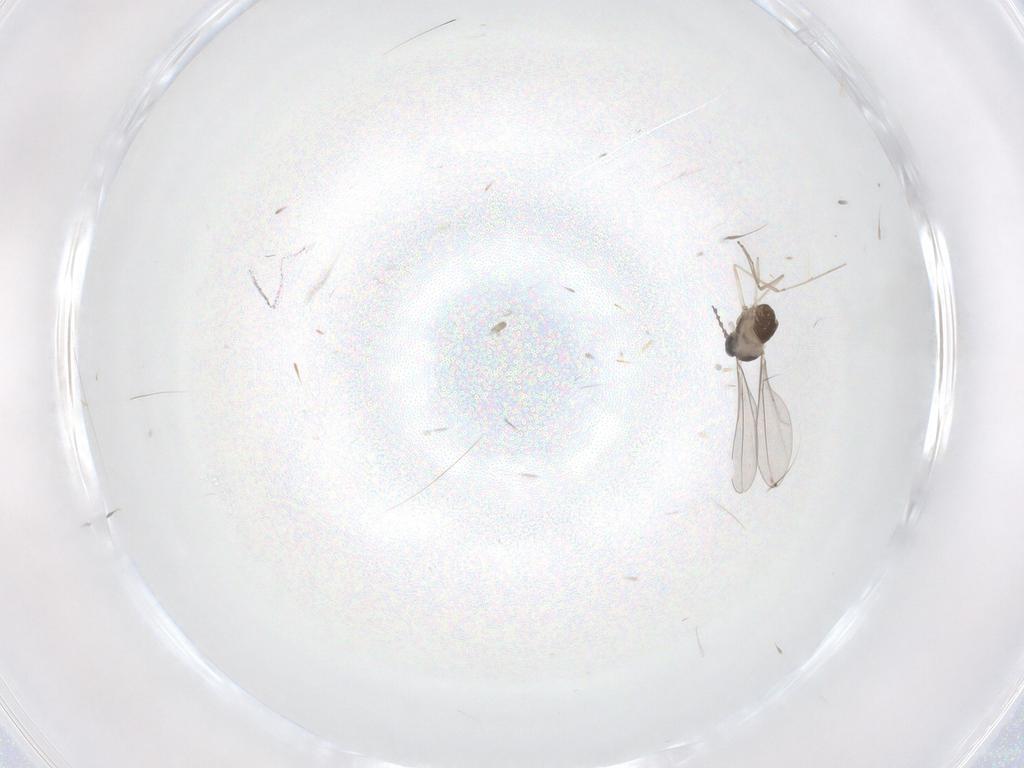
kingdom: Animalia
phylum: Arthropoda
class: Insecta
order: Diptera
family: Cecidomyiidae
